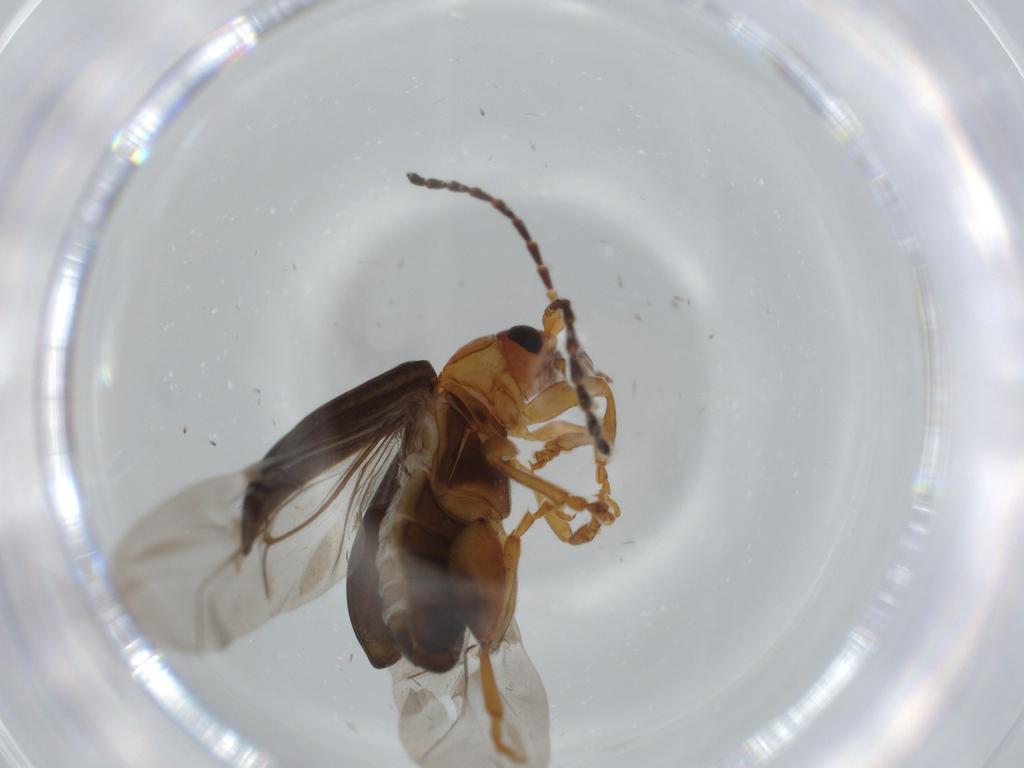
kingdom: Animalia
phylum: Arthropoda
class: Insecta
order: Coleoptera
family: Chrysomelidae
